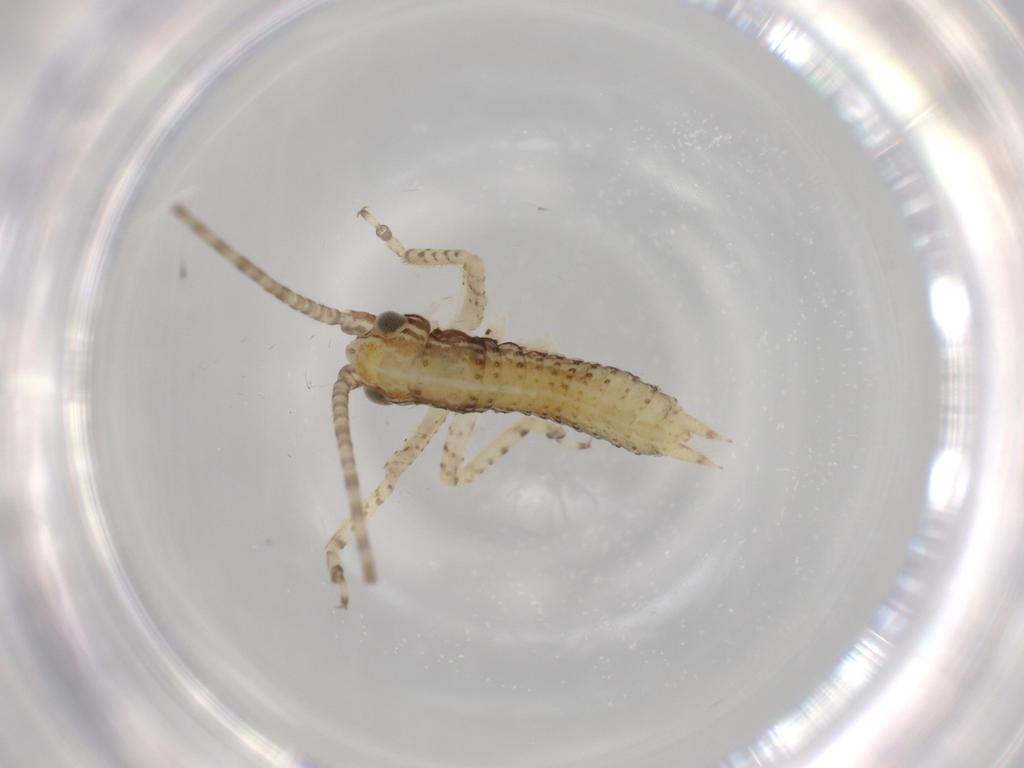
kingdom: Animalia
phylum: Arthropoda
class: Insecta
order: Orthoptera
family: Gryllidae
